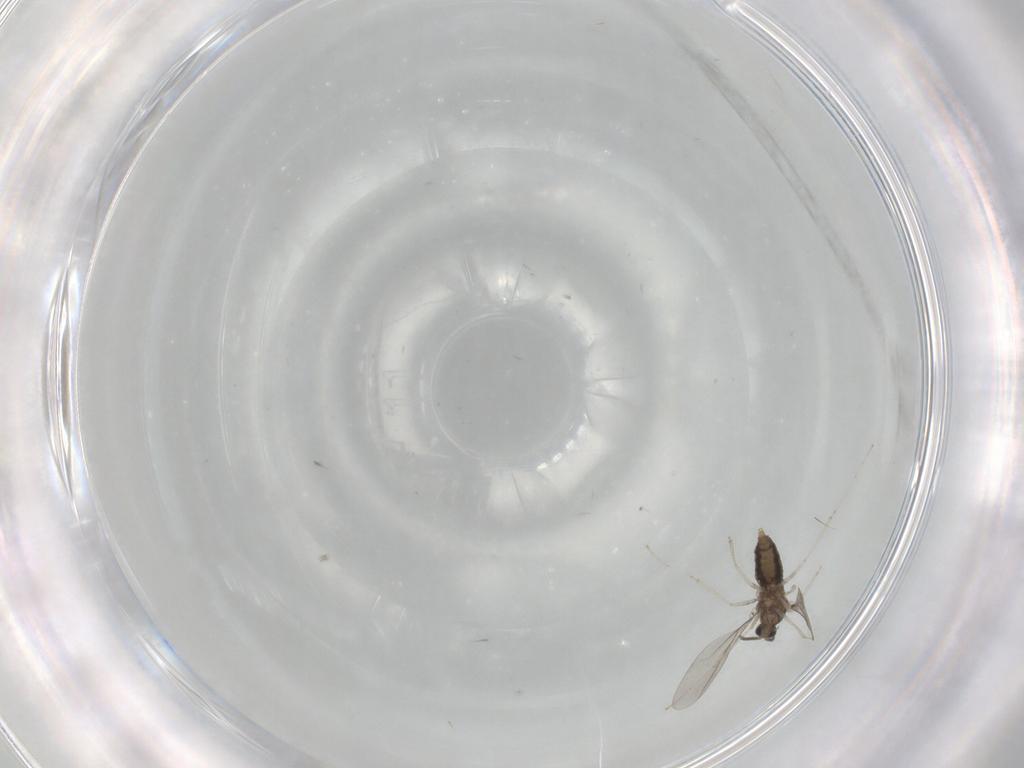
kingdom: Animalia
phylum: Arthropoda
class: Insecta
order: Diptera
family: Cecidomyiidae
